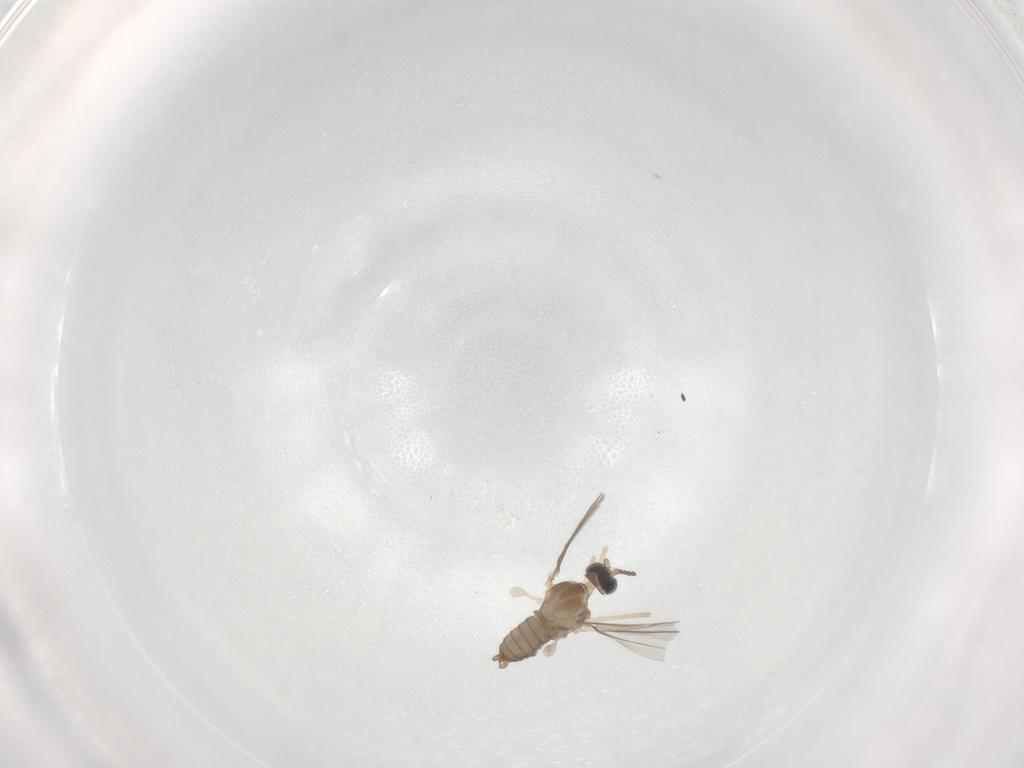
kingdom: Animalia
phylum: Arthropoda
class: Insecta
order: Diptera
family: Cecidomyiidae
